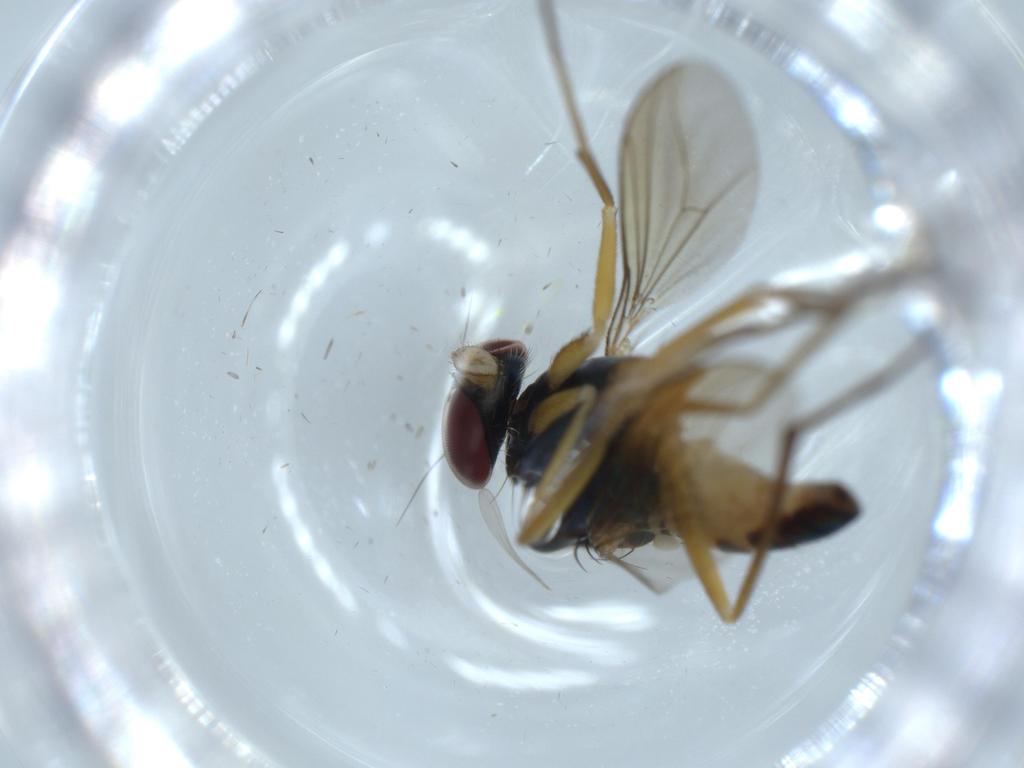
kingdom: Animalia
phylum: Arthropoda
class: Insecta
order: Diptera
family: Dolichopodidae
